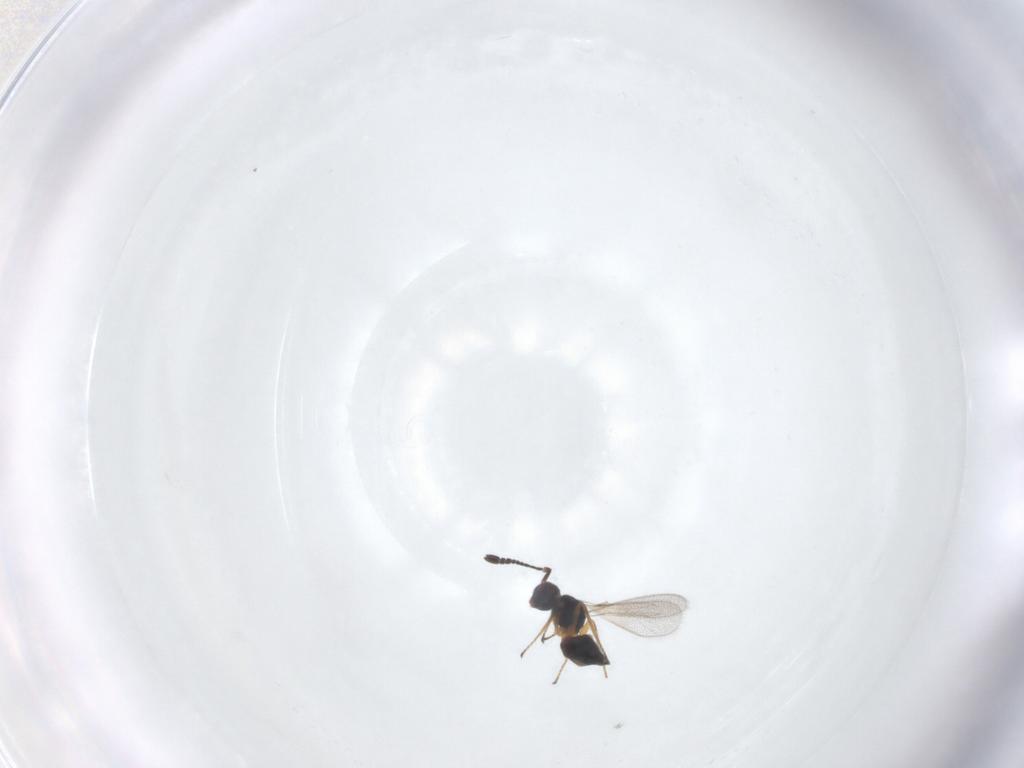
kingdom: Animalia
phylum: Arthropoda
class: Insecta
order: Hymenoptera
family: Mymaridae
